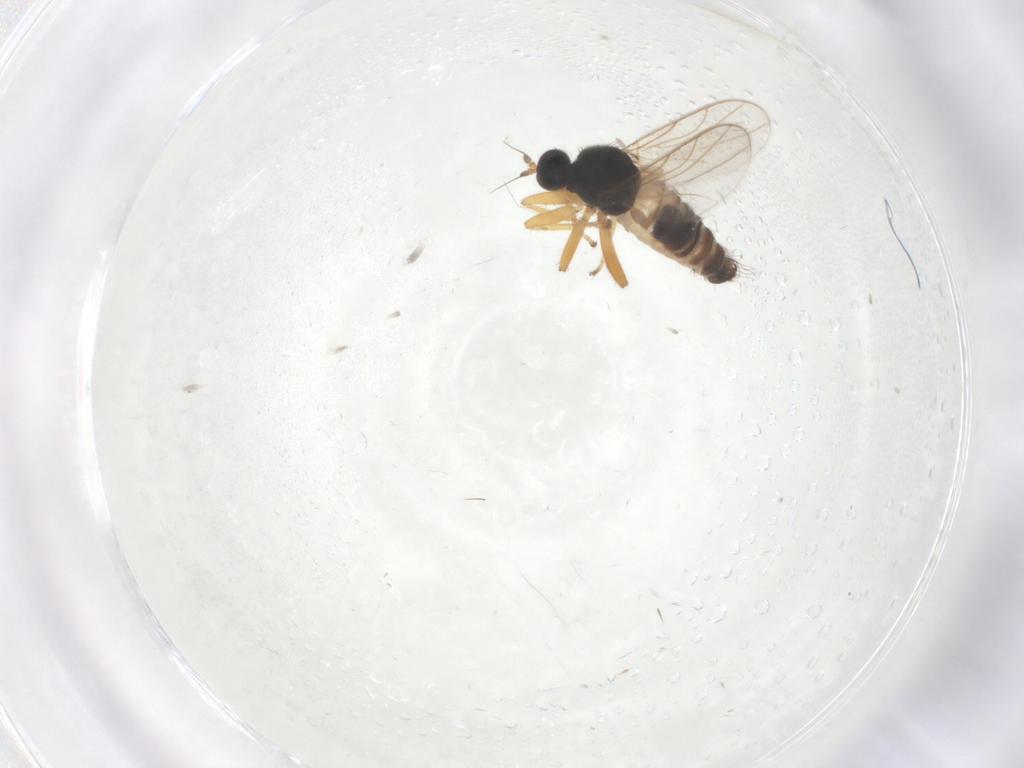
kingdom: Animalia
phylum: Arthropoda
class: Insecta
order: Diptera
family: Hybotidae
